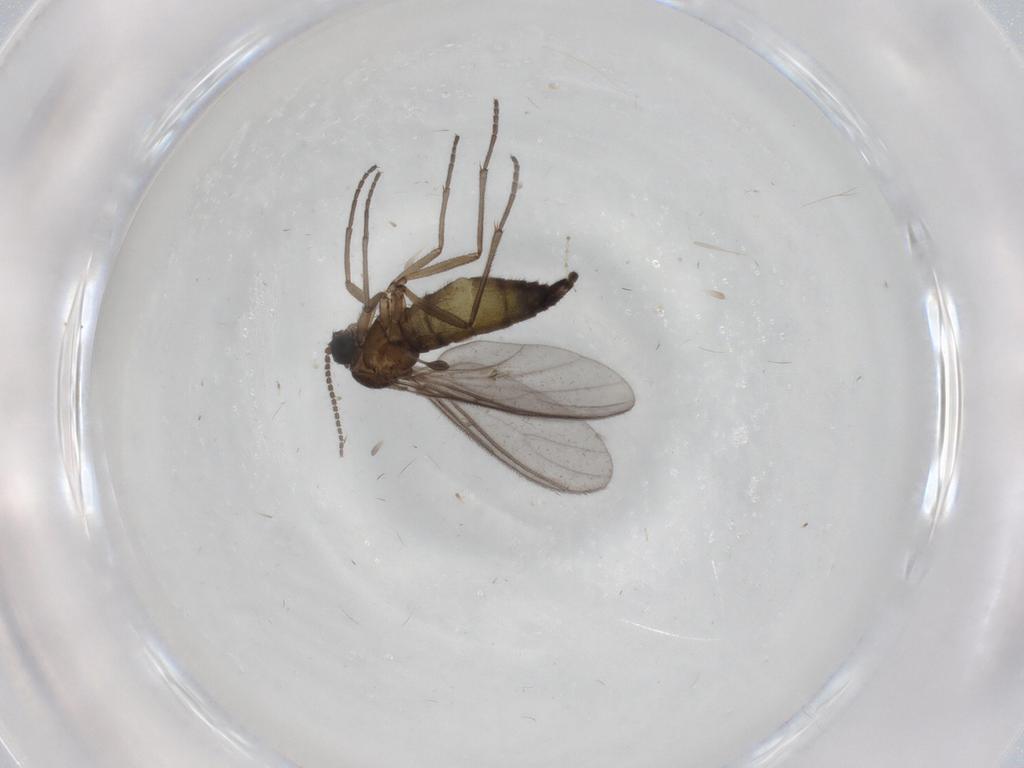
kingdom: Animalia
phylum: Arthropoda
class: Insecta
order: Diptera
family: Sciaridae
